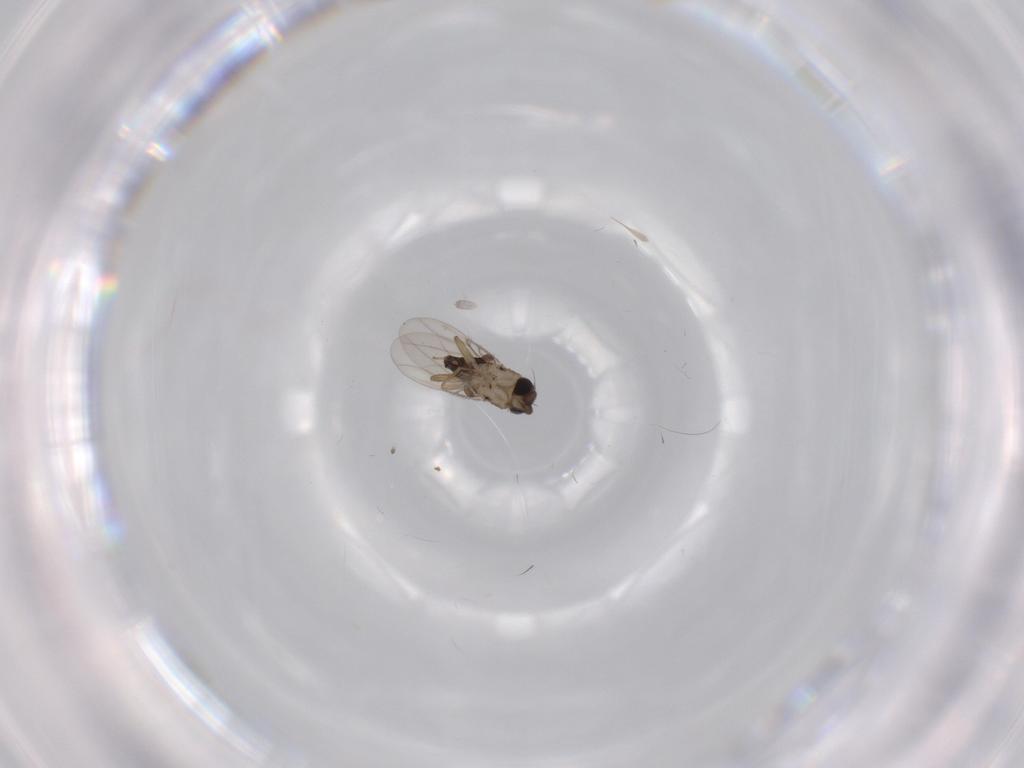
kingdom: Animalia
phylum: Arthropoda
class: Insecta
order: Diptera
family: Phoridae
